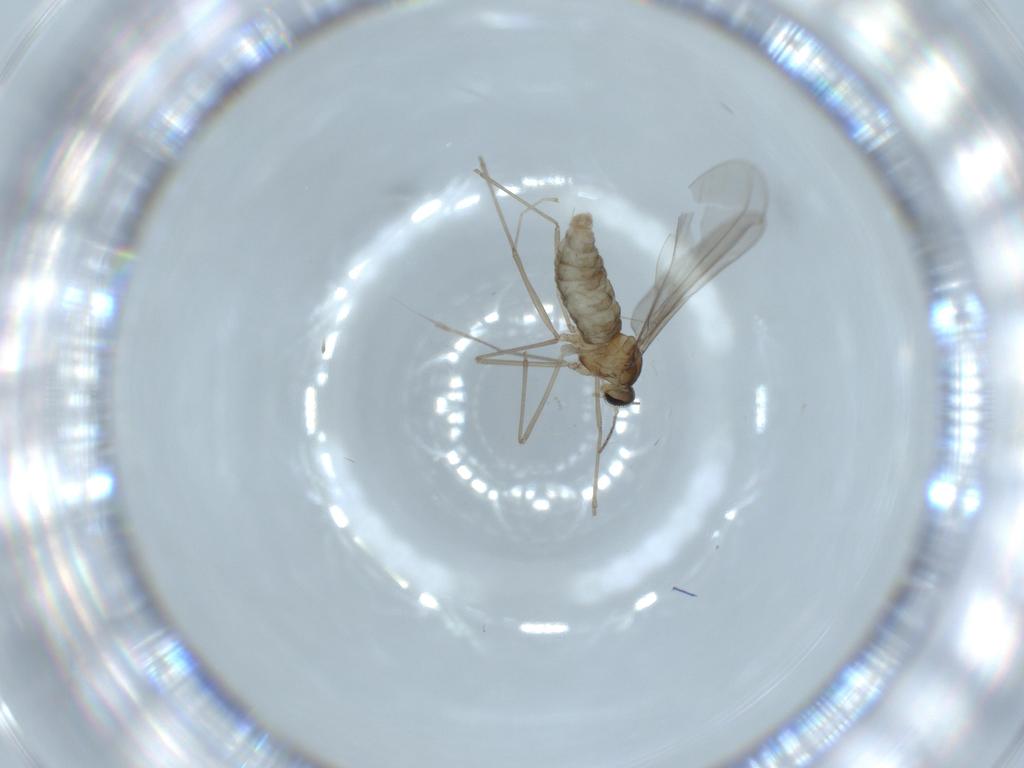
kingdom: Animalia
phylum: Arthropoda
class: Insecta
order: Diptera
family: Cecidomyiidae
